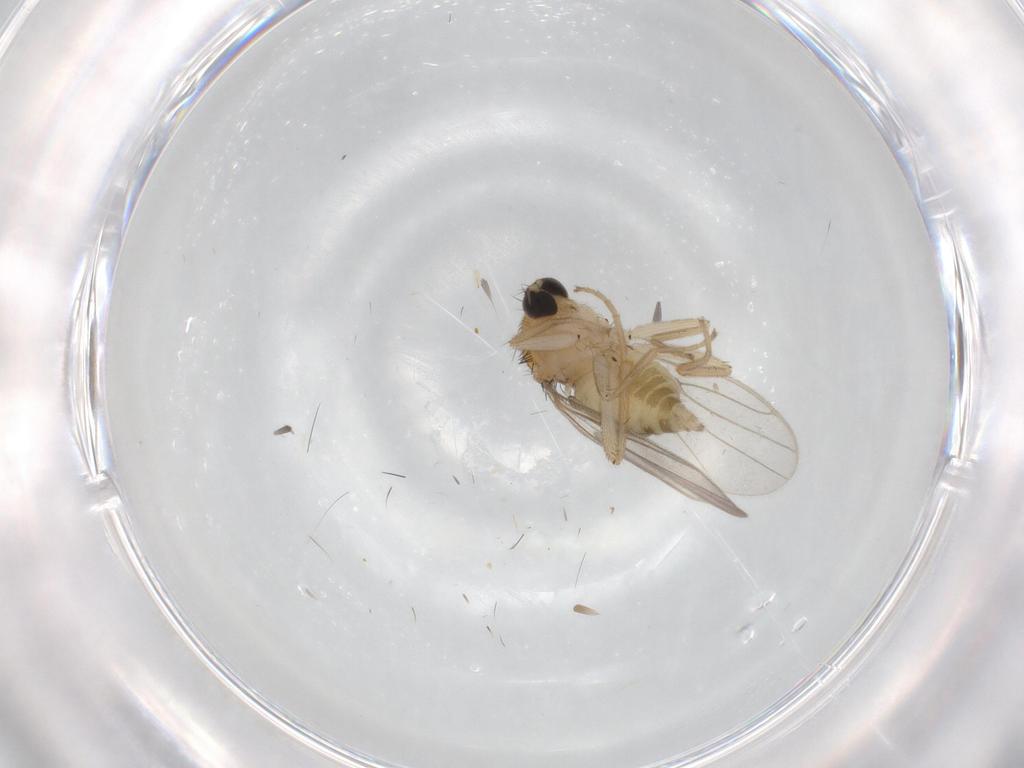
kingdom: Animalia
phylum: Arthropoda
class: Insecta
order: Diptera
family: Hybotidae
